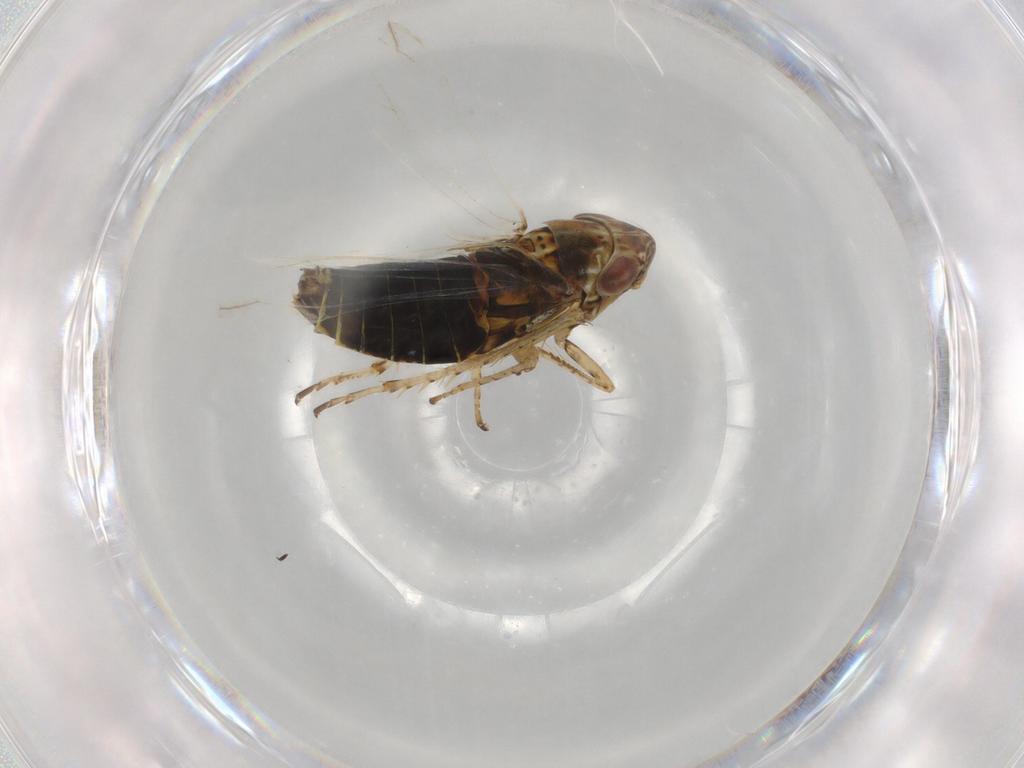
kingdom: Animalia
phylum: Arthropoda
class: Insecta
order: Hemiptera
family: Cicadellidae
